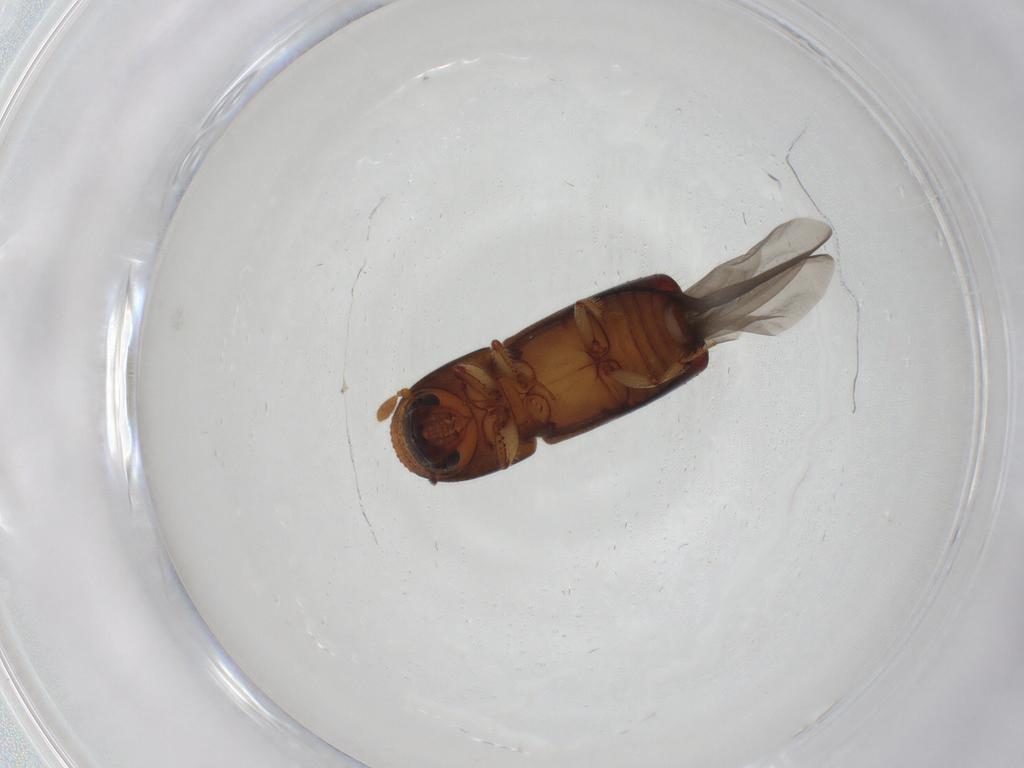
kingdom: Animalia
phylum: Arthropoda
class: Insecta
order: Coleoptera
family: Curculionidae
